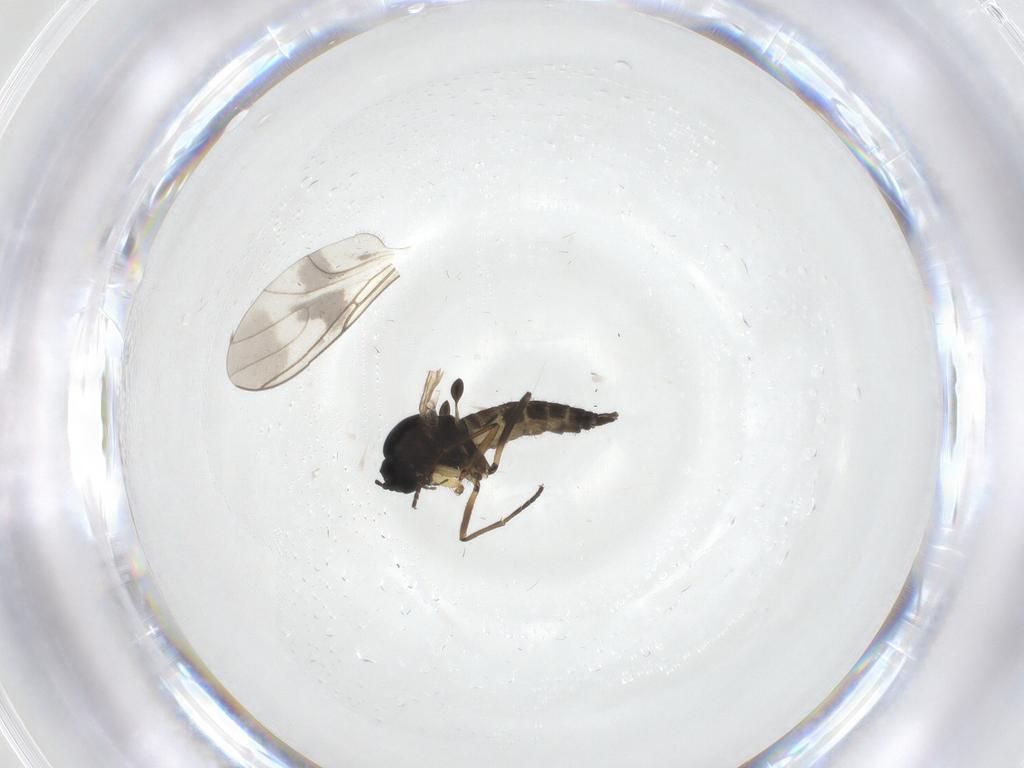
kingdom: Animalia
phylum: Arthropoda
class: Insecta
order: Diptera
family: Sciaridae
